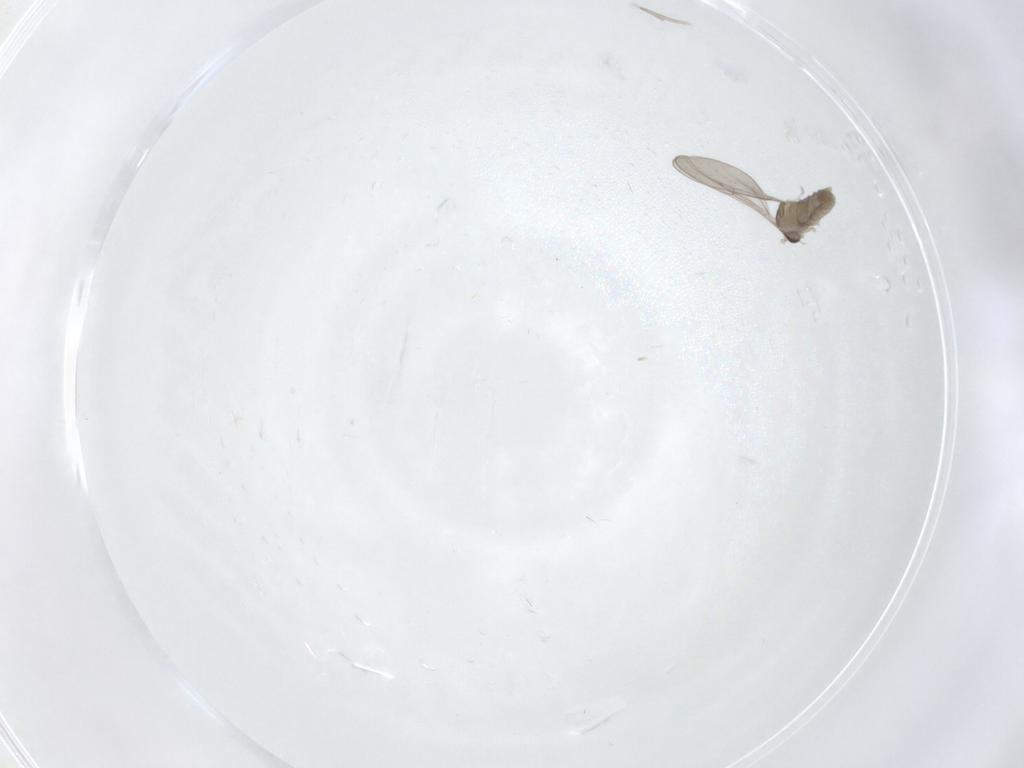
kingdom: Animalia
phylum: Arthropoda
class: Insecta
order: Diptera
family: Cecidomyiidae
